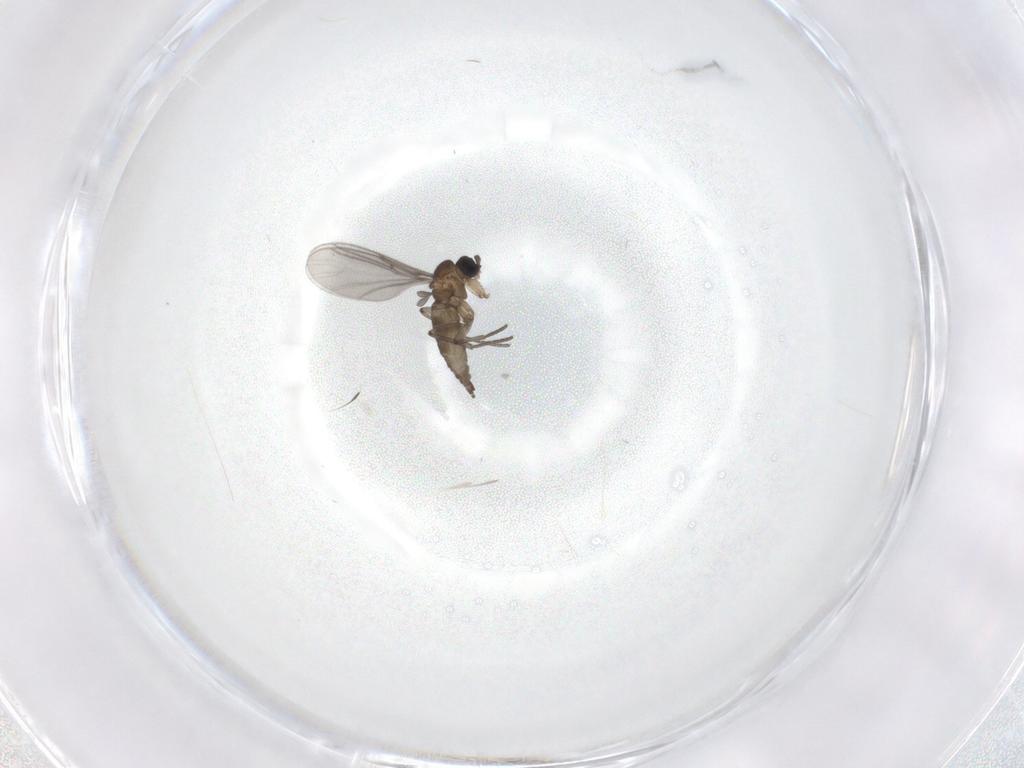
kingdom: Animalia
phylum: Arthropoda
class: Insecta
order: Diptera
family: Sciaridae
